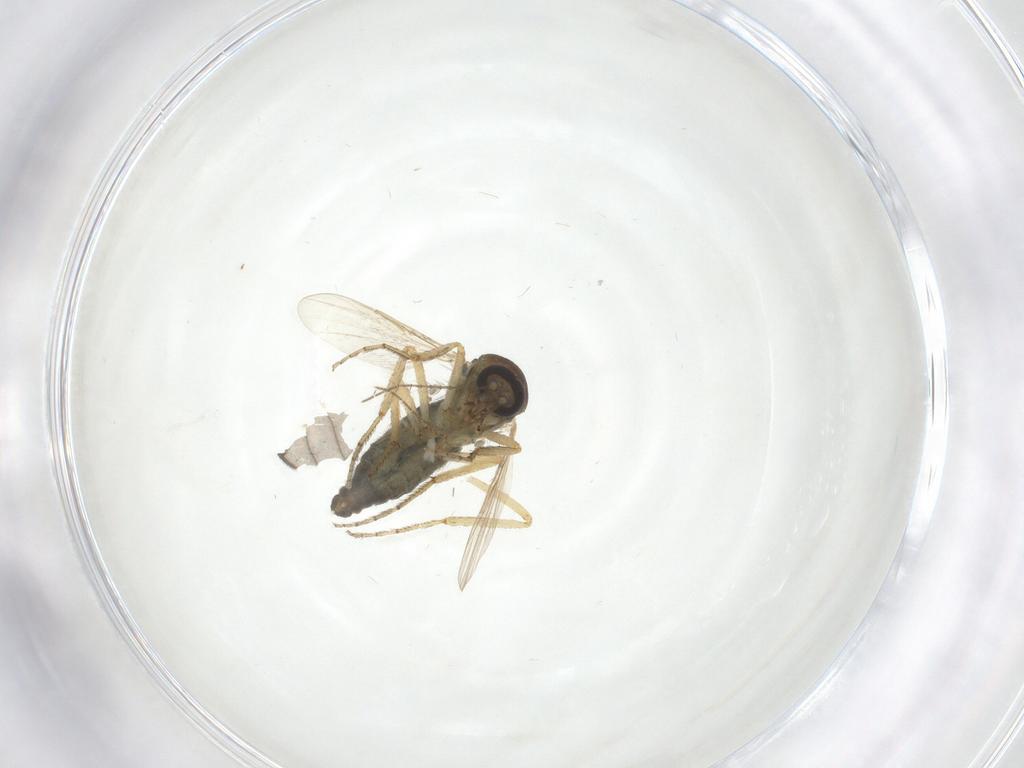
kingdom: Animalia
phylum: Arthropoda
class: Insecta
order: Diptera
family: Ceratopogonidae
